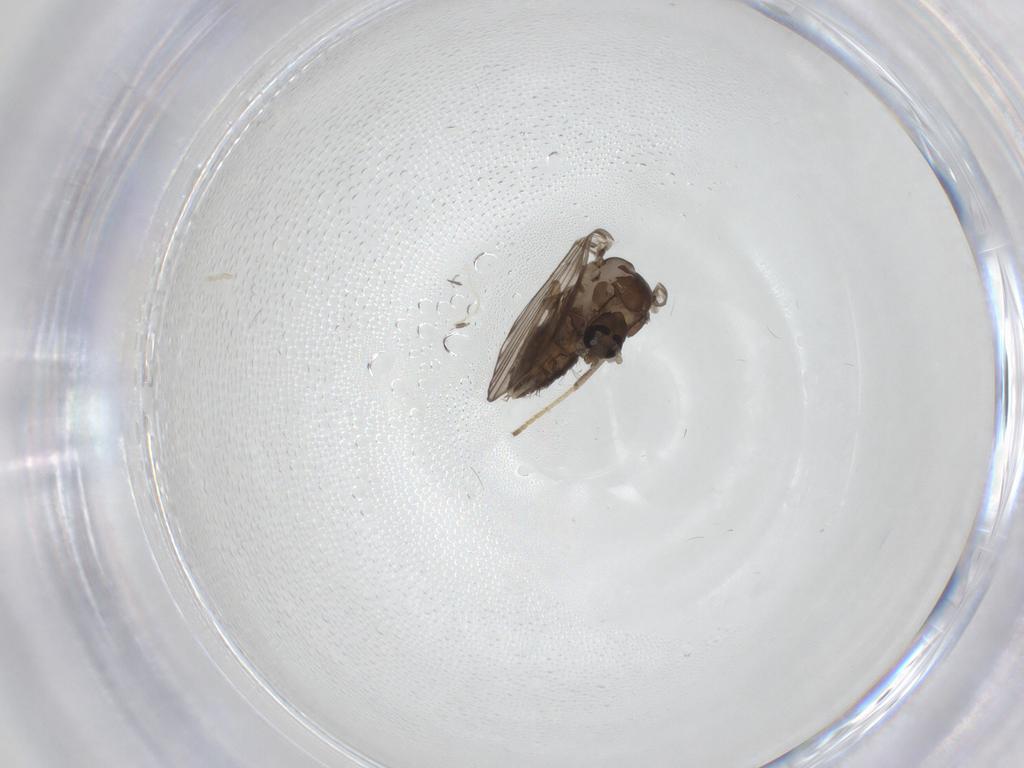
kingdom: Animalia
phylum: Arthropoda
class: Insecta
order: Diptera
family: Psychodidae
